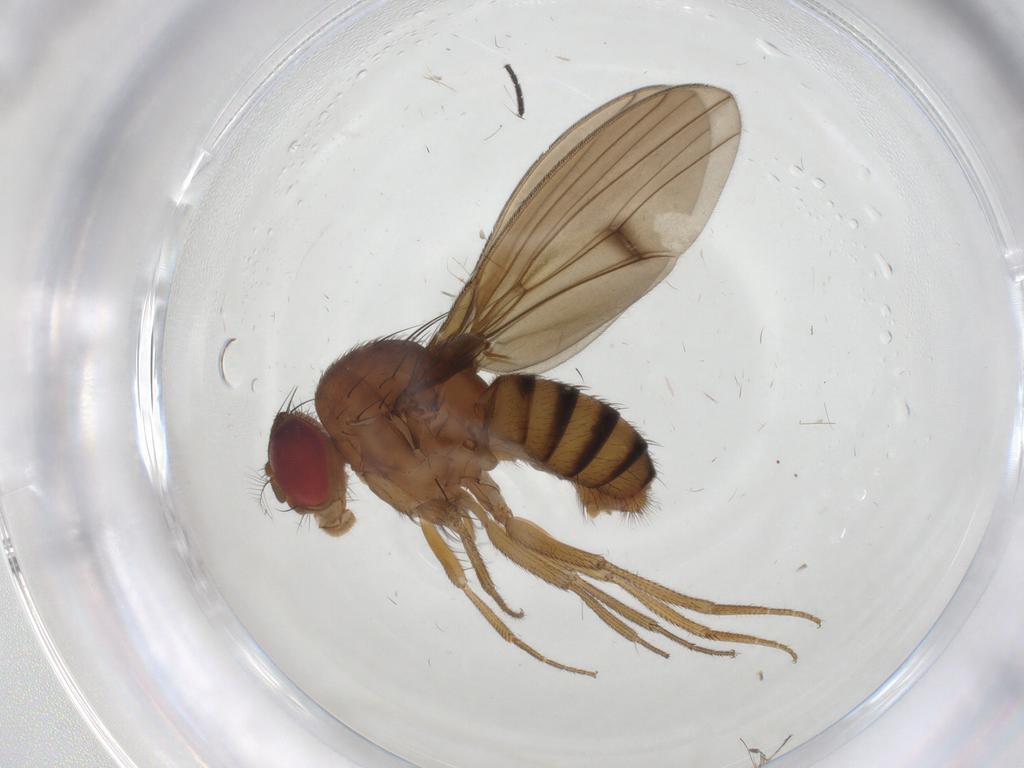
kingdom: Animalia
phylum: Arthropoda
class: Insecta
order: Diptera
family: Drosophilidae
